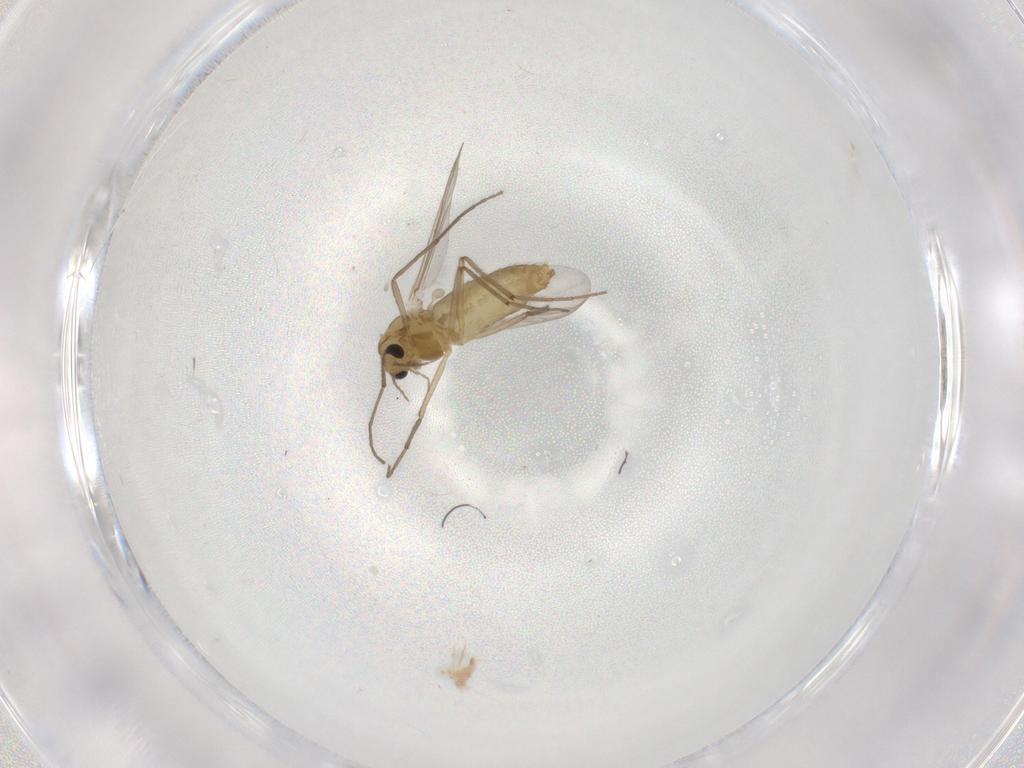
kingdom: Animalia
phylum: Arthropoda
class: Insecta
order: Diptera
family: Chironomidae
